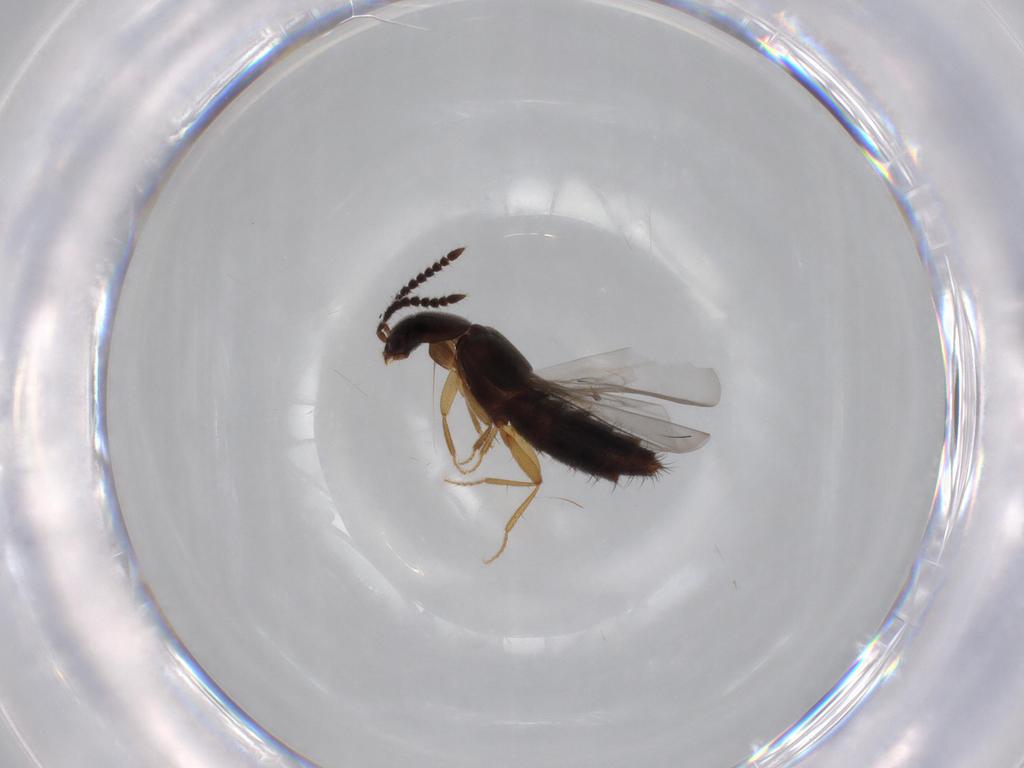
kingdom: Animalia
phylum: Arthropoda
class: Insecta
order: Coleoptera
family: Staphylinidae
